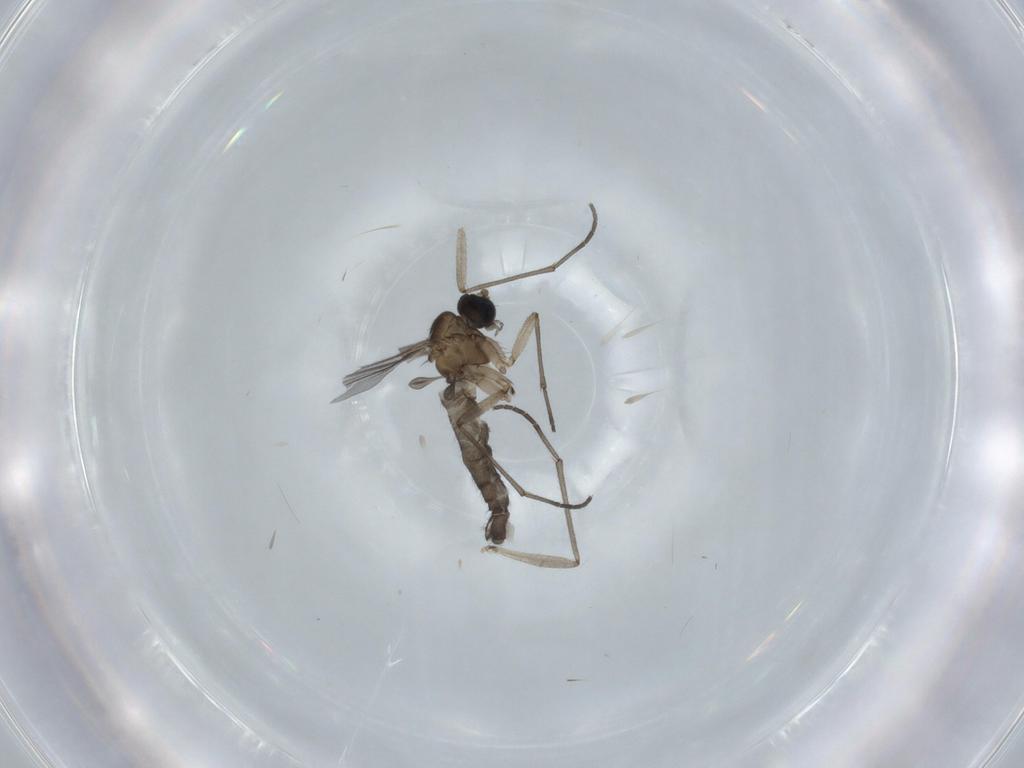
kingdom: Animalia
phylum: Arthropoda
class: Insecta
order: Diptera
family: Sciaridae
